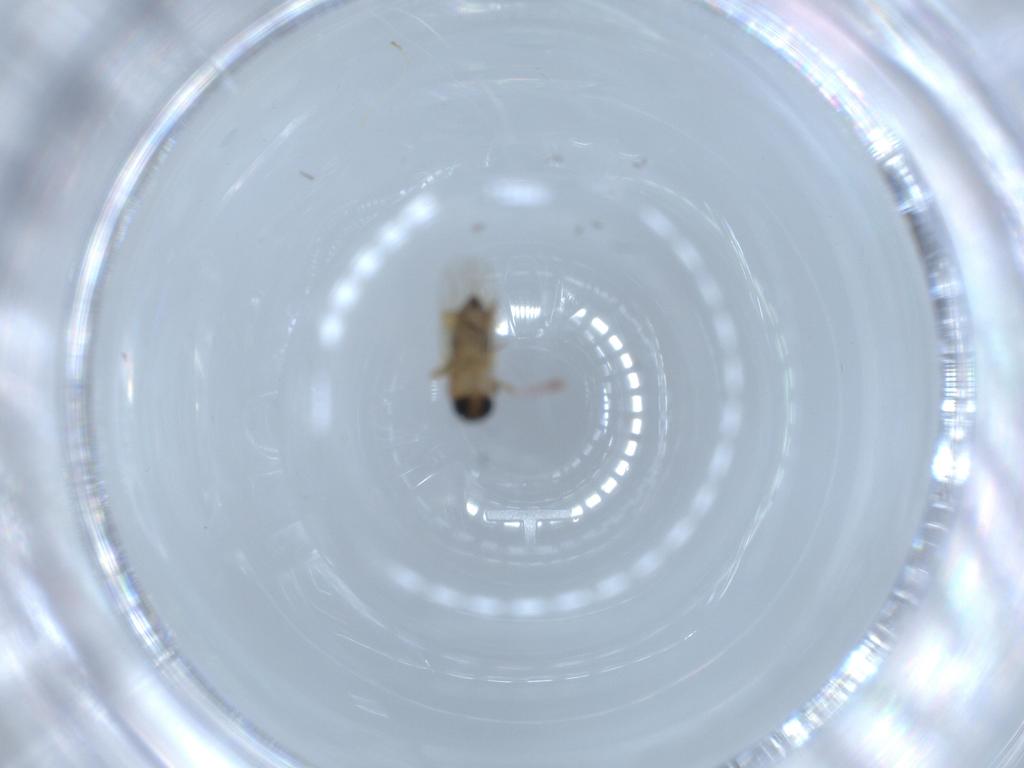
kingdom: Animalia
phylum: Arthropoda
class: Insecta
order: Diptera
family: Phoridae
